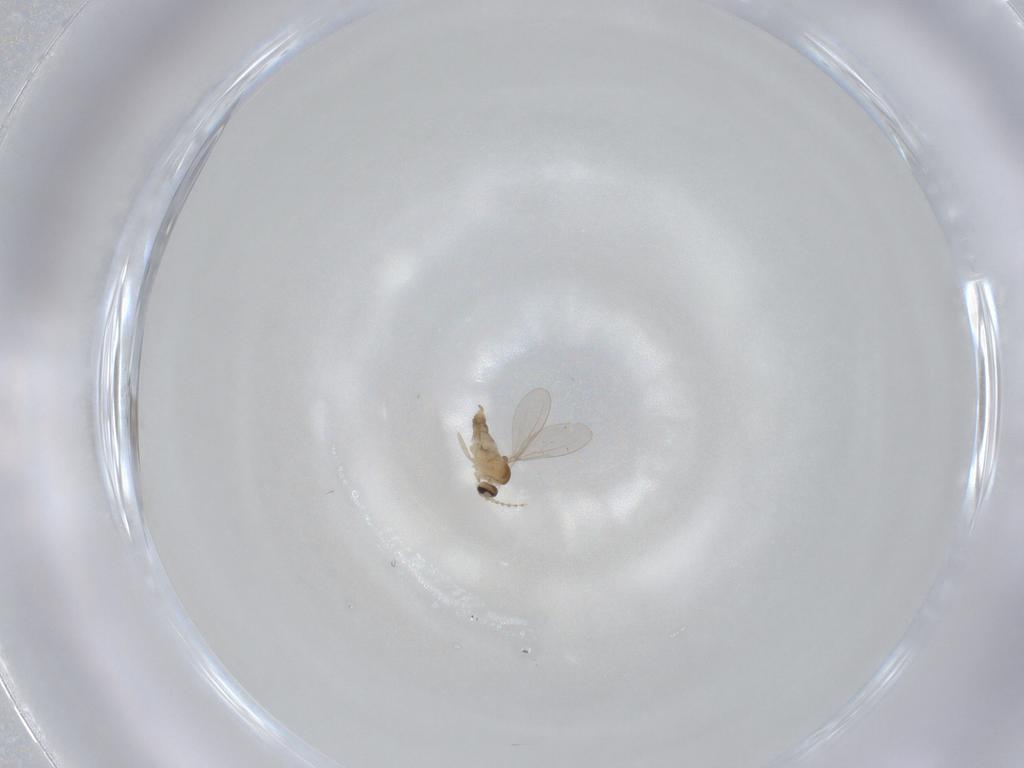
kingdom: Animalia
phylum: Arthropoda
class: Insecta
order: Diptera
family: Cecidomyiidae
